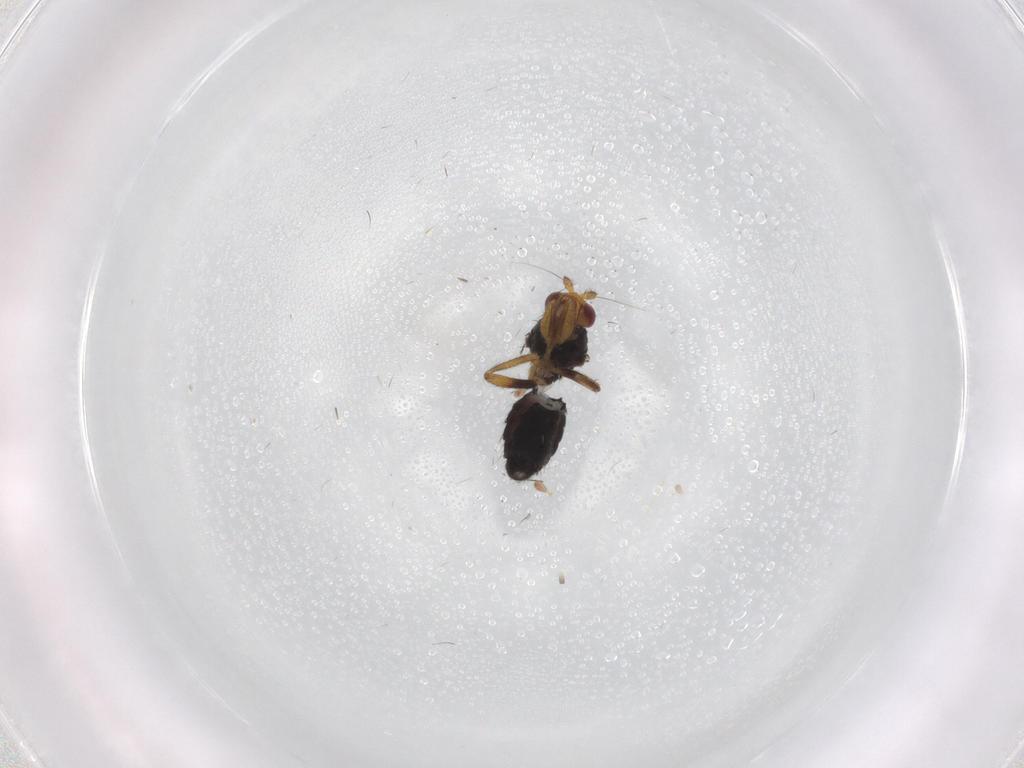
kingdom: Animalia
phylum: Arthropoda
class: Insecta
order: Diptera
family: Sphaeroceridae
